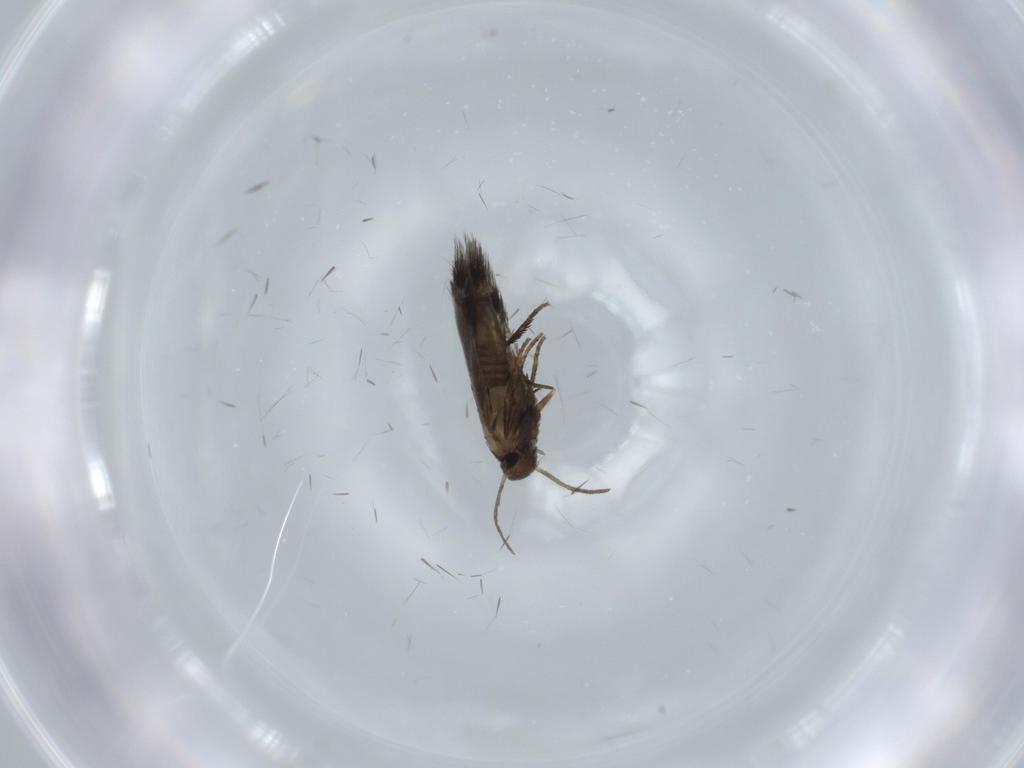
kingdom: Animalia
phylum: Arthropoda
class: Insecta
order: Lepidoptera
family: Heliozelidae
